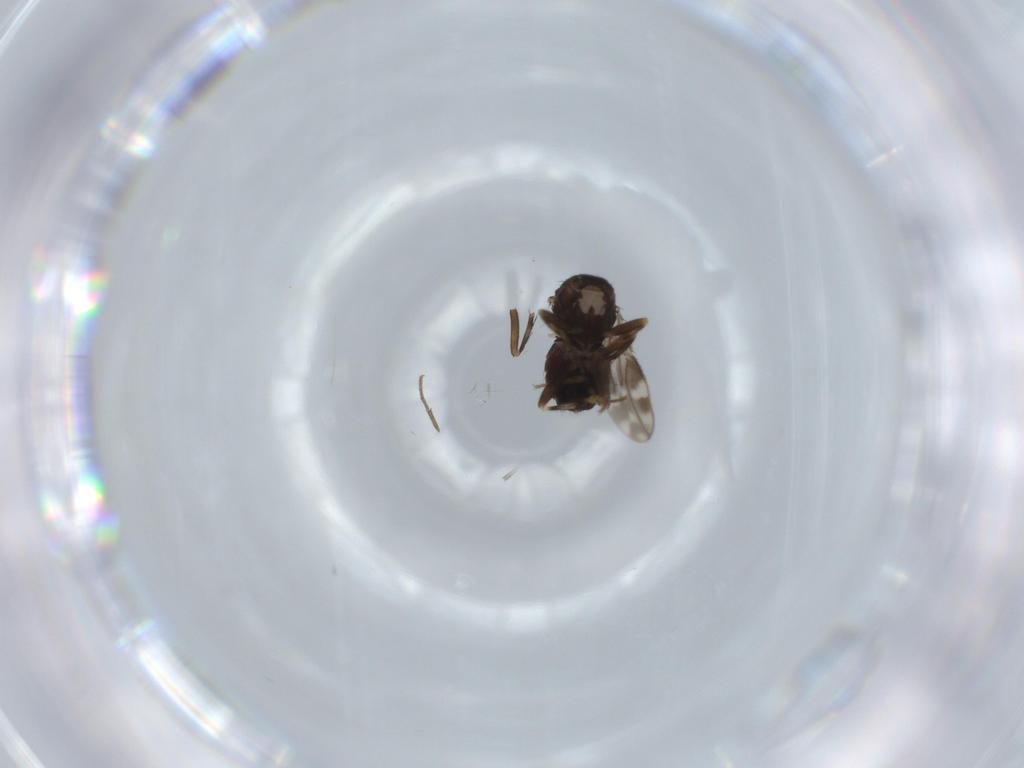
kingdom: Animalia
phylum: Arthropoda
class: Insecta
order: Diptera
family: Sphaeroceridae
